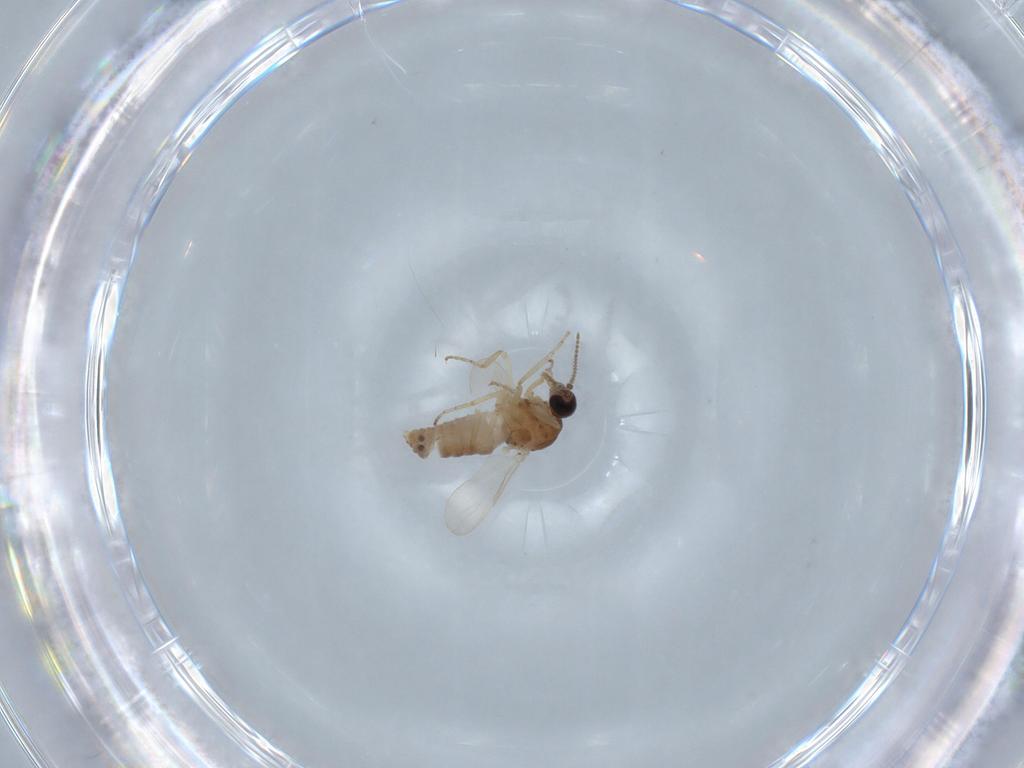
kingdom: Animalia
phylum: Arthropoda
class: Insecta
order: Diptera
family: Ceratopogonidae
